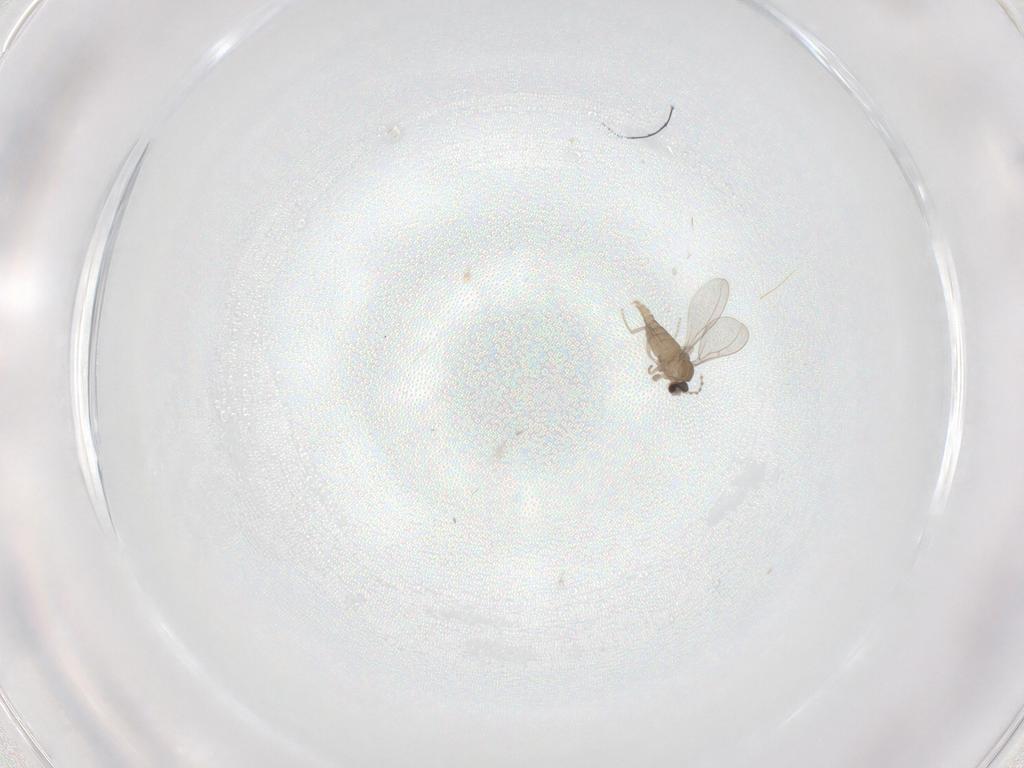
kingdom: Animalia
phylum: Arthropoda
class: Insecta
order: Diptera
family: Cecidomyiidae
